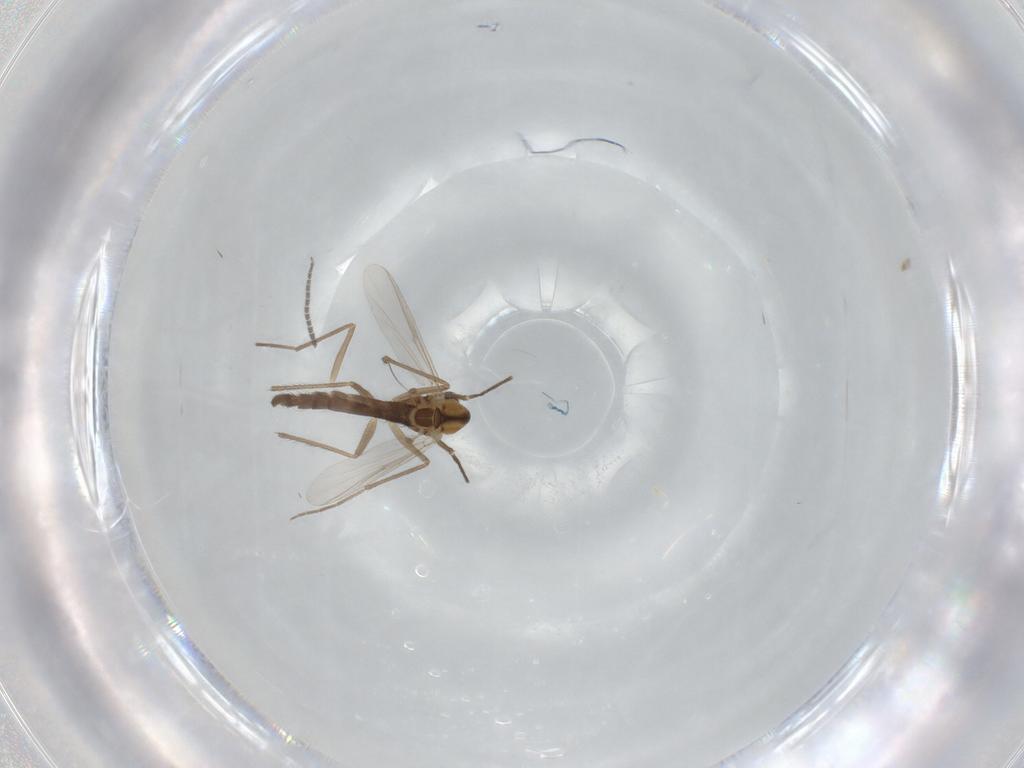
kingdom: Animalia
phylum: Arthropoda
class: Insecta
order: Diptera
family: Chironomidae
